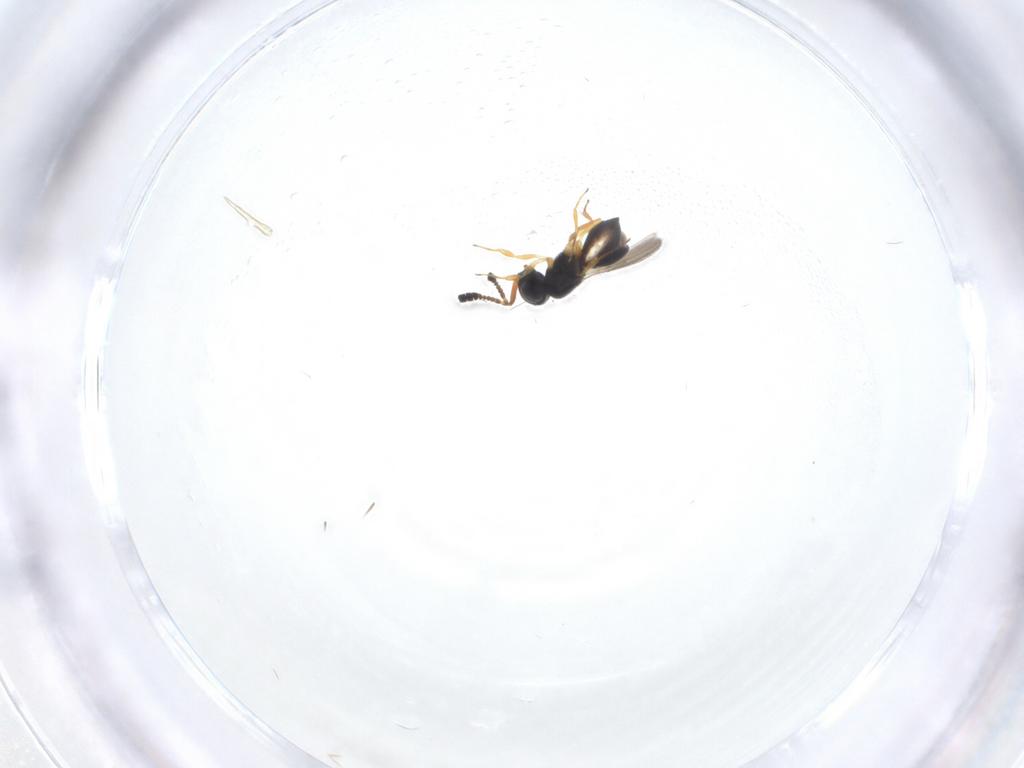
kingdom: Animalia
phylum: Arthropoda
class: Insecta
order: Hymenoptera
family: Scelionidae
